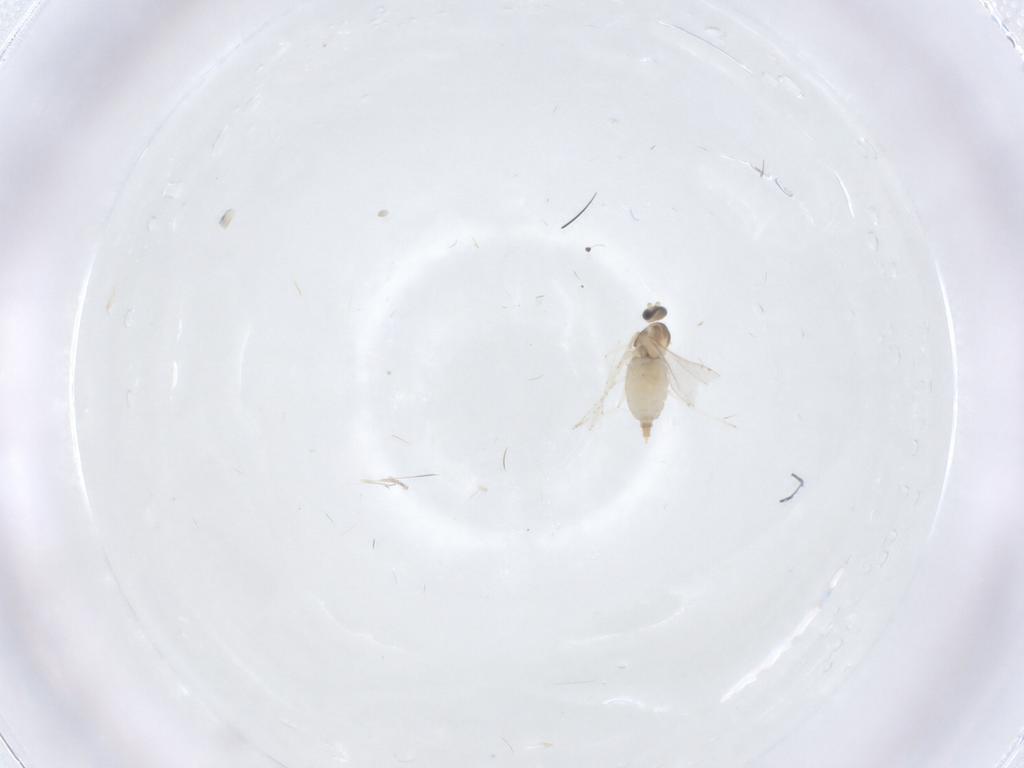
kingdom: Animalia
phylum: Arthropoda
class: Insecta
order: Diptera
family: Chironomidae
